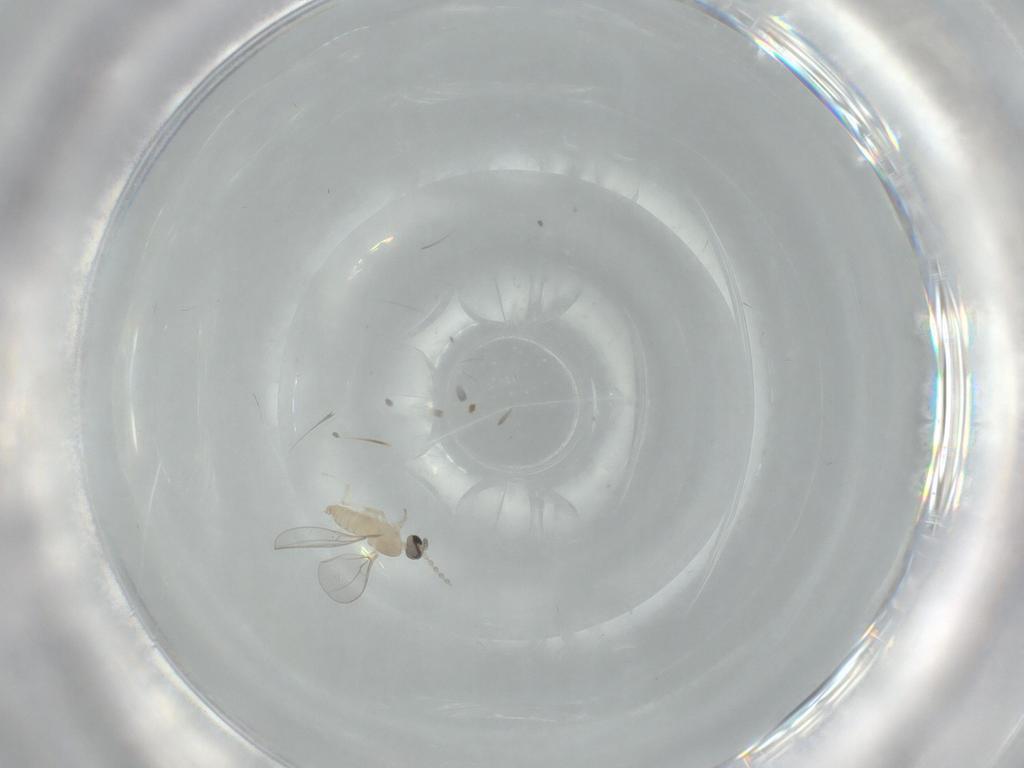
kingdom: Animalia
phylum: Arthropoda
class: Insecta
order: Diptera
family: Sciaridae
